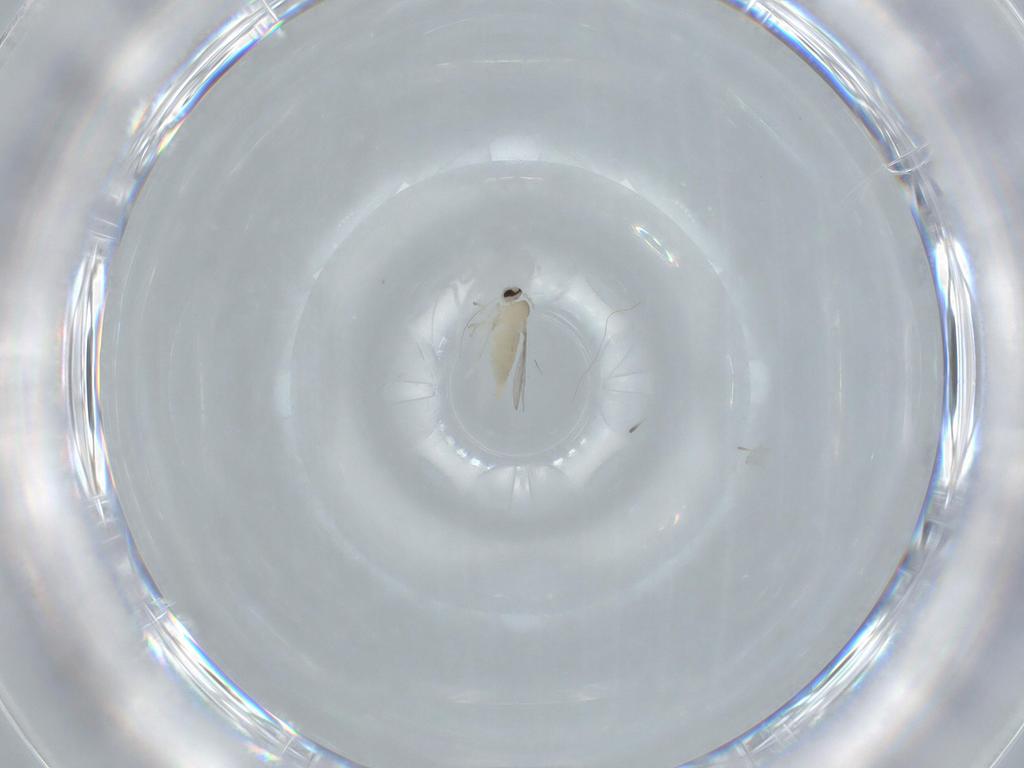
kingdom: Animalia
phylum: Arthropoda
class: Insecta
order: Diptera
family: Cecidomyiidae
